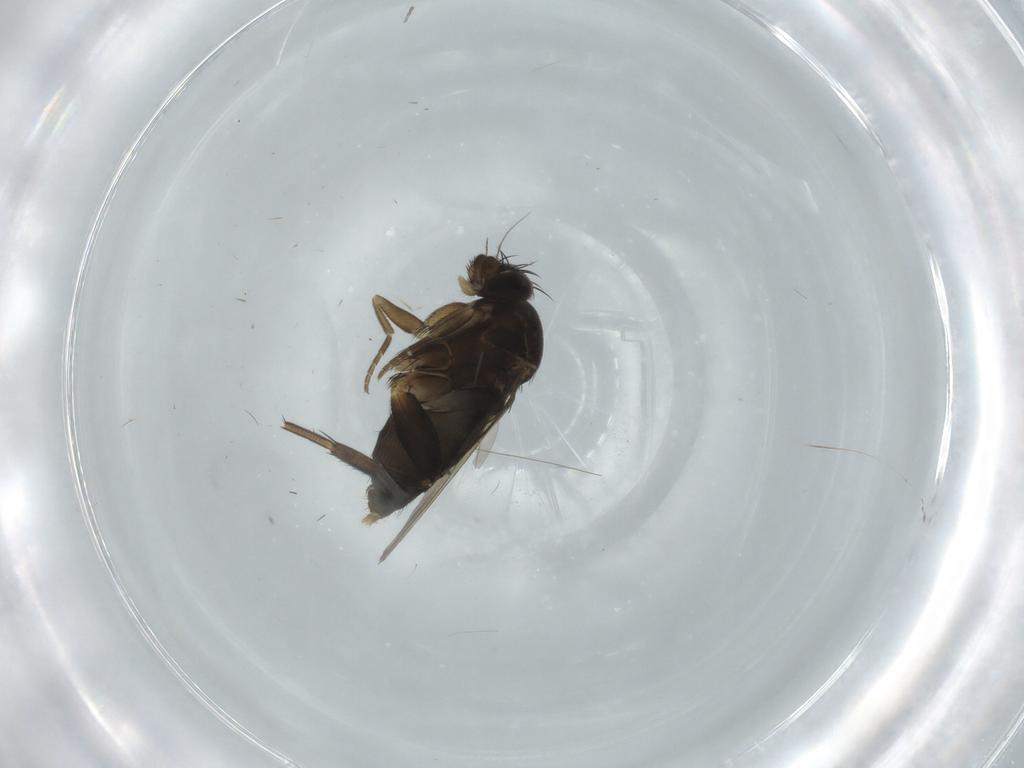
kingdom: Animalia
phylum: Arthropoda
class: Insecta
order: Diptera
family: Phoridae
